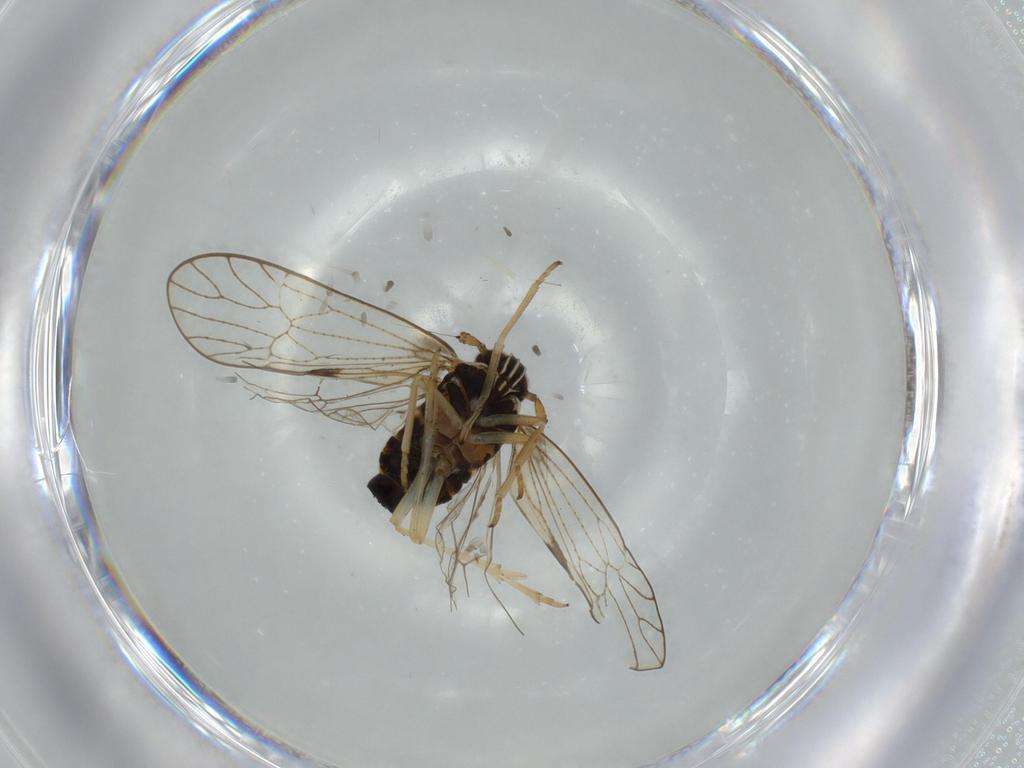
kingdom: Animalia
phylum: Arthropoda
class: Insecta
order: Hemiptera
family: Cicadellidae
